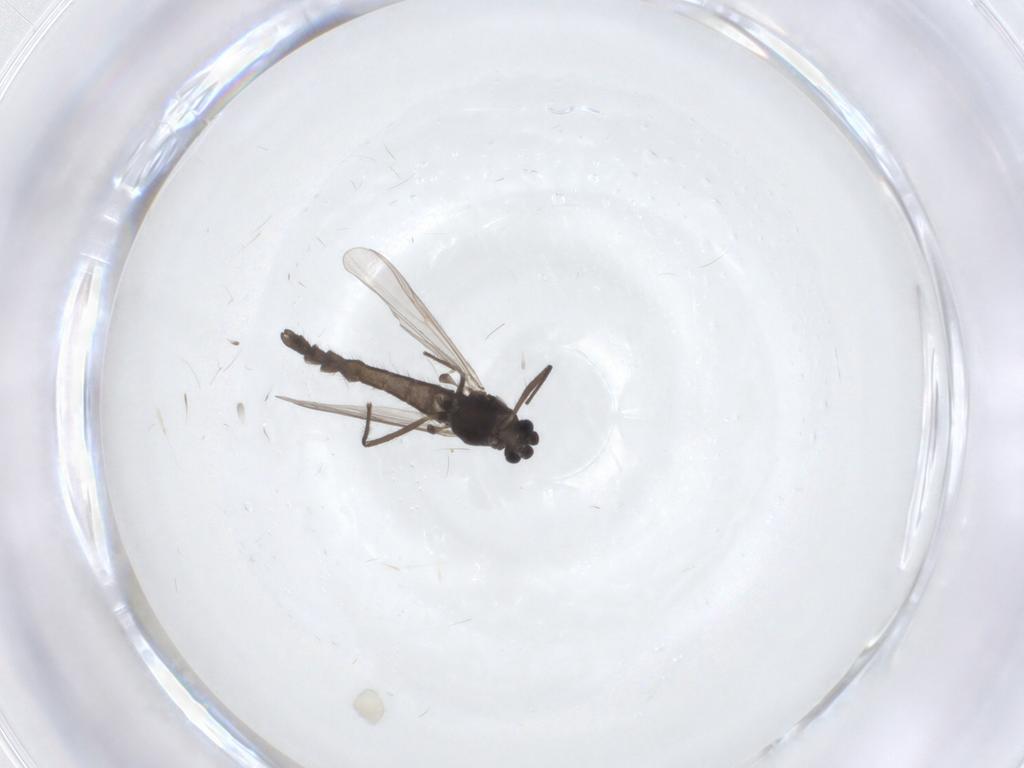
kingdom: Animalia
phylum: Arthropoda
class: Insecta
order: Diptera
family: Chironomidae
